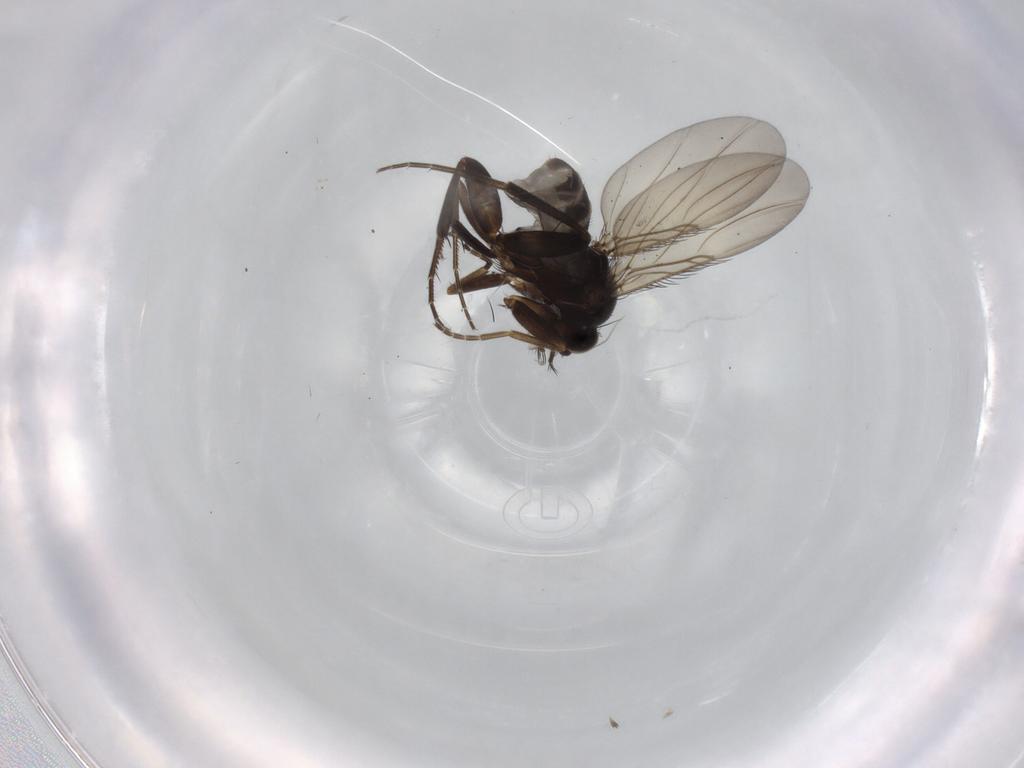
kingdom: Animalia
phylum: Arthropoda
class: Insecta
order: Diptera
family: Phoridae
